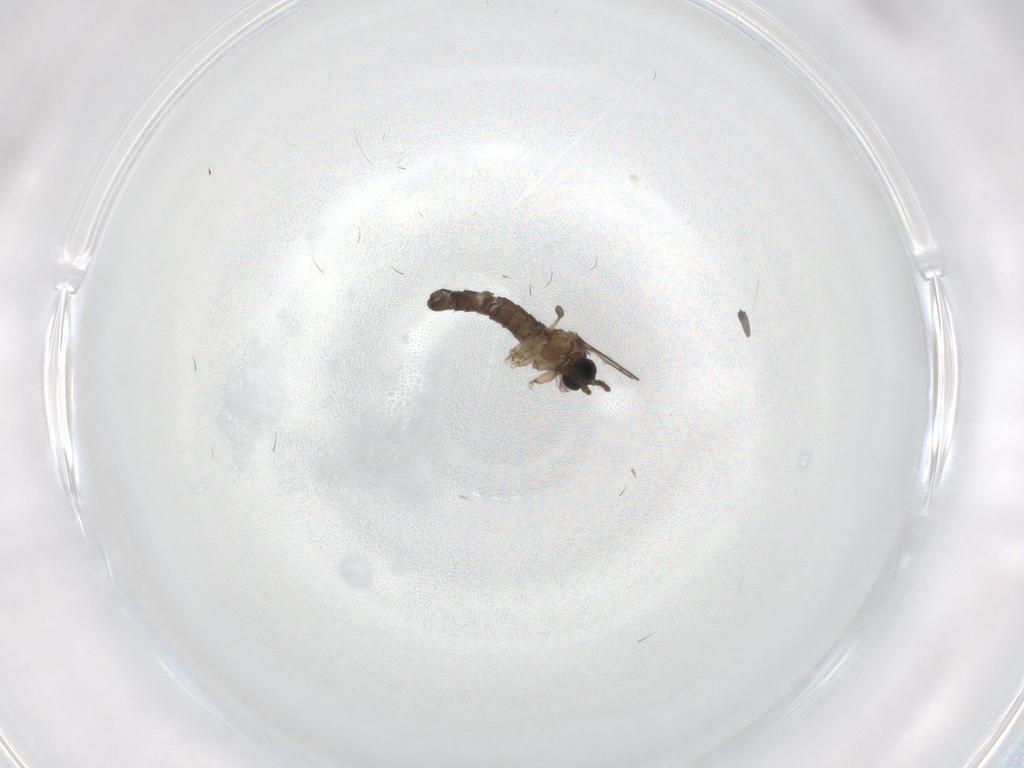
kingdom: Animalia
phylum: Arthropoda
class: Insecta
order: Diptera
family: Sciaridae
